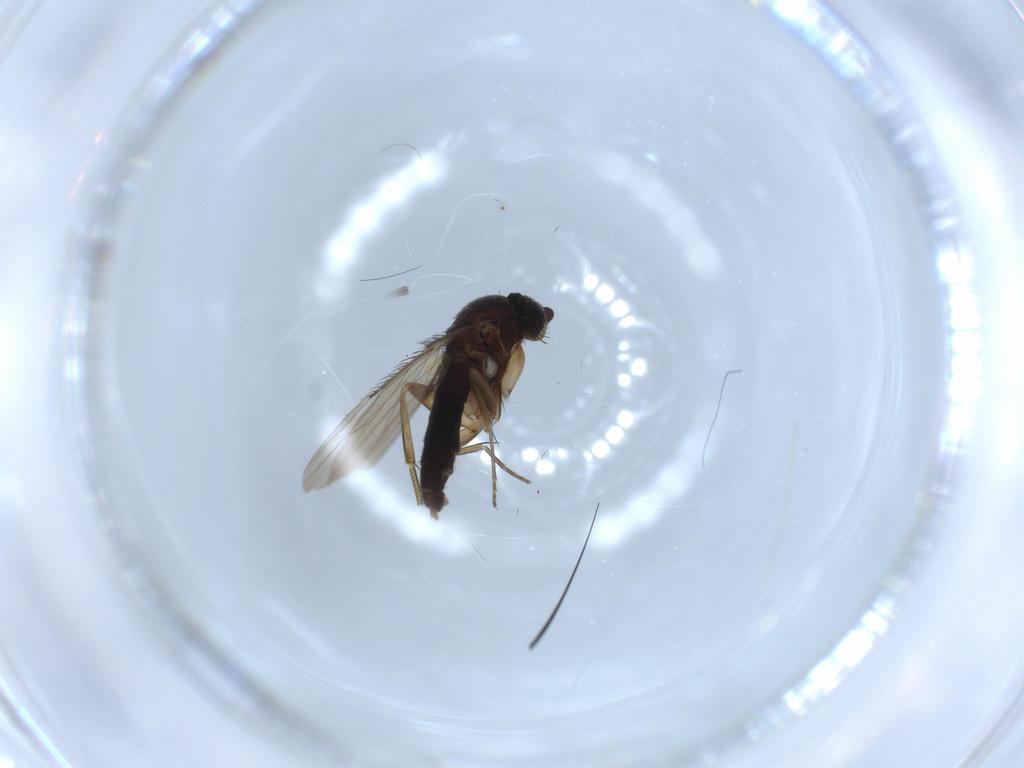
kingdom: Animalia
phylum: Arthropoda
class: Insecta
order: Diptera
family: Phoridae
